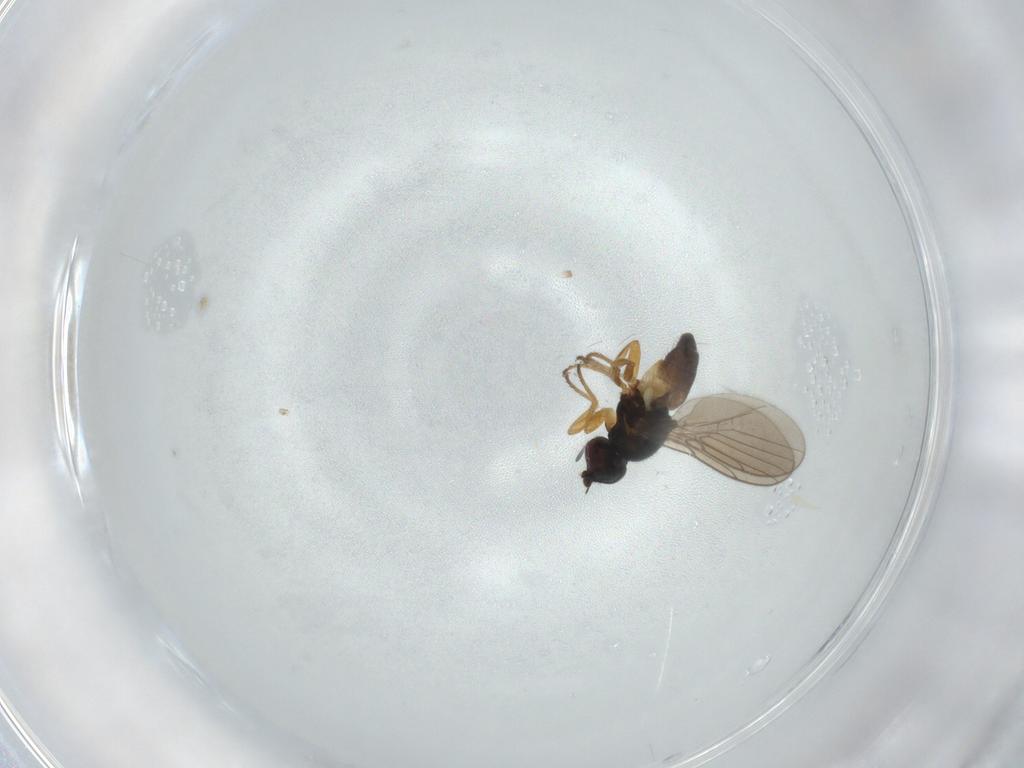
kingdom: Animalia
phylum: Arthropoda
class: Insecta
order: Diptera
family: Chloropidae
